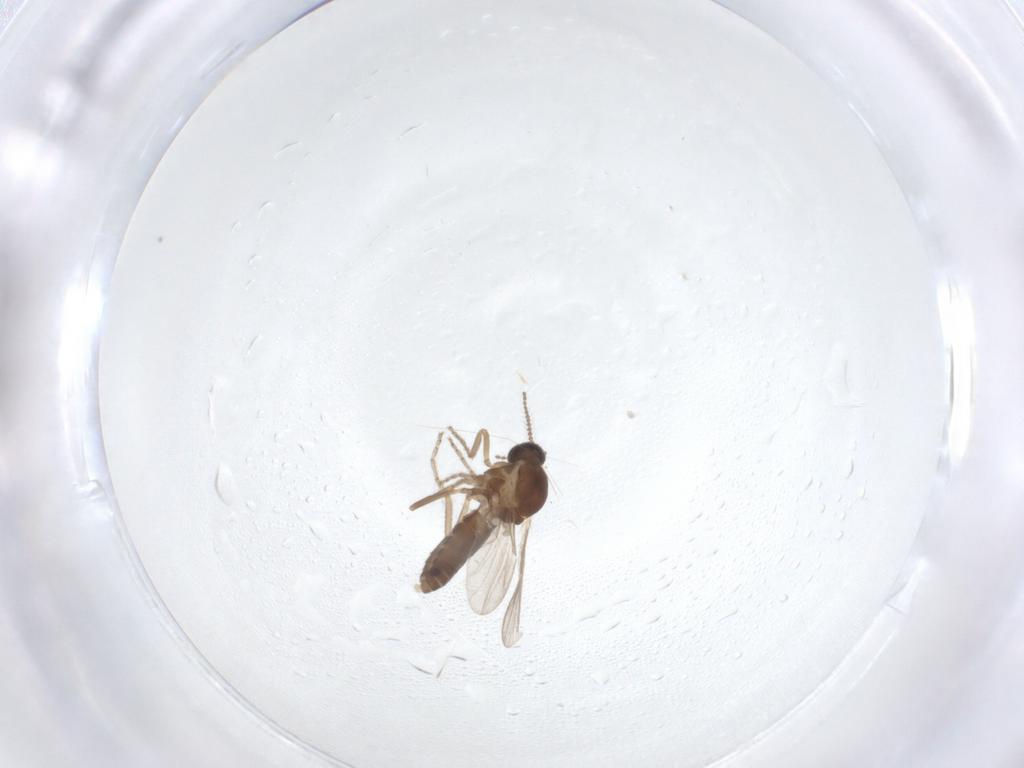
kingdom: Animalia
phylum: Arthropoda
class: Insecta
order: Diptera
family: Ceratopogonidae
